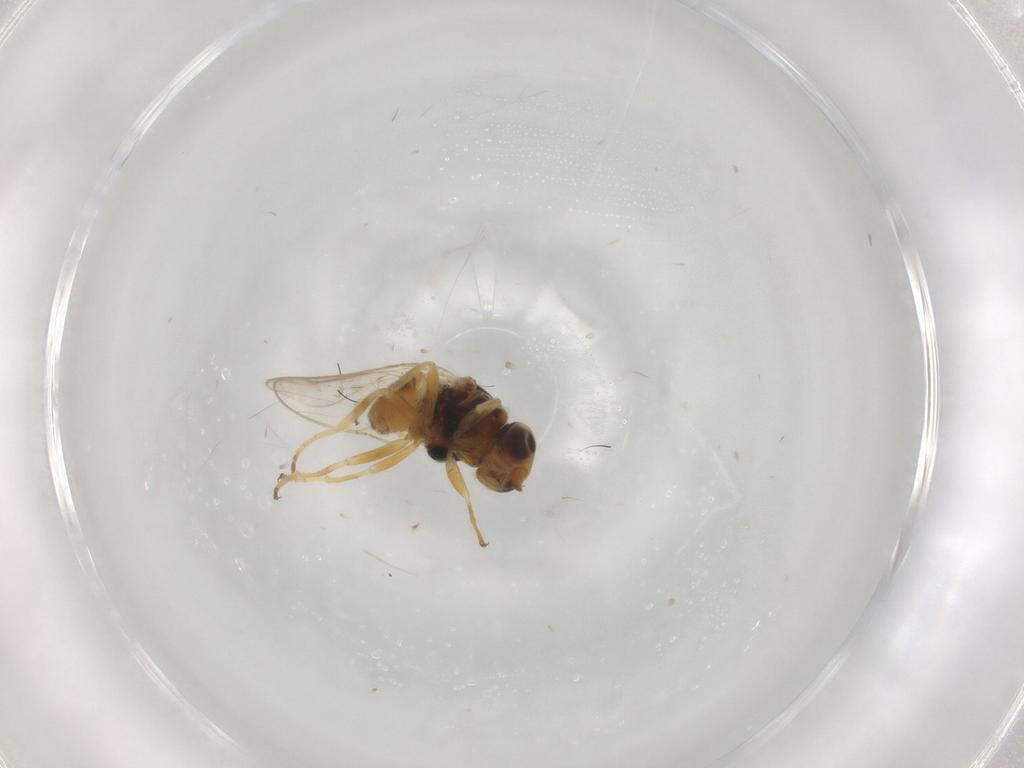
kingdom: Animalia
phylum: Arthropoda
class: Insecta
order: Diptera
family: Chloropidae
